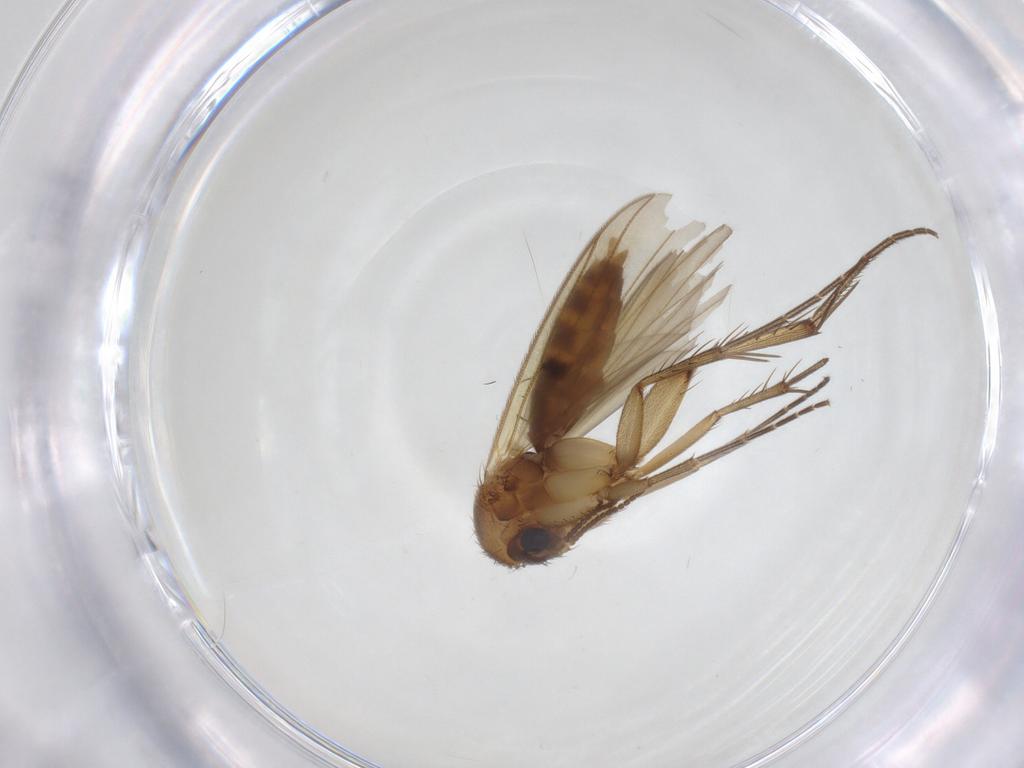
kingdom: Animalia
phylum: Arthropoda
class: Insecta
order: Diptera
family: Cecidomyiidae
